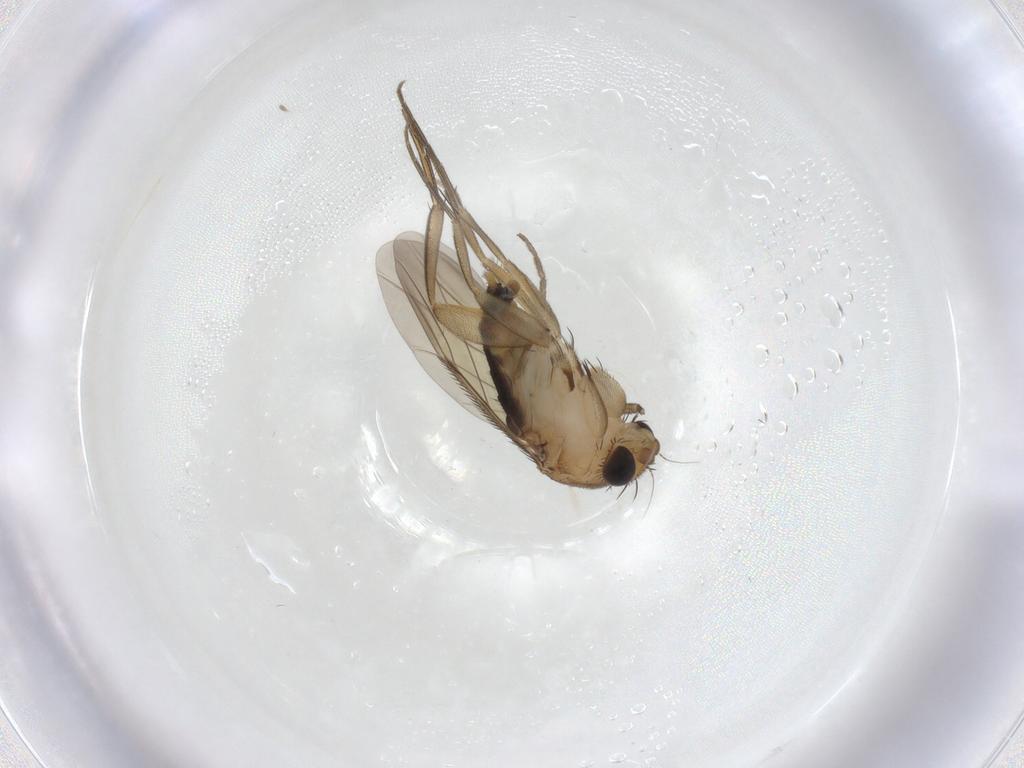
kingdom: Animalia
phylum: Arthropoda
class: Insecta
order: Diptera
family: Phoridae
